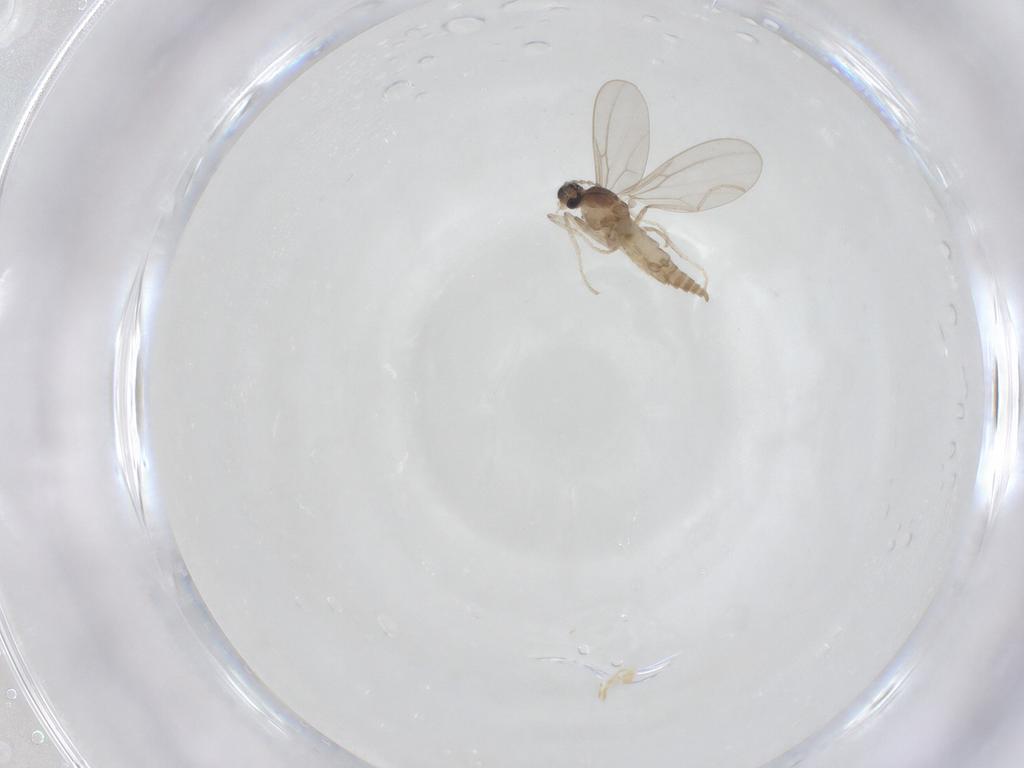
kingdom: Animalia
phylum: Arthropoda
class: Insecta
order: Diptera
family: Cecidomyiidae
